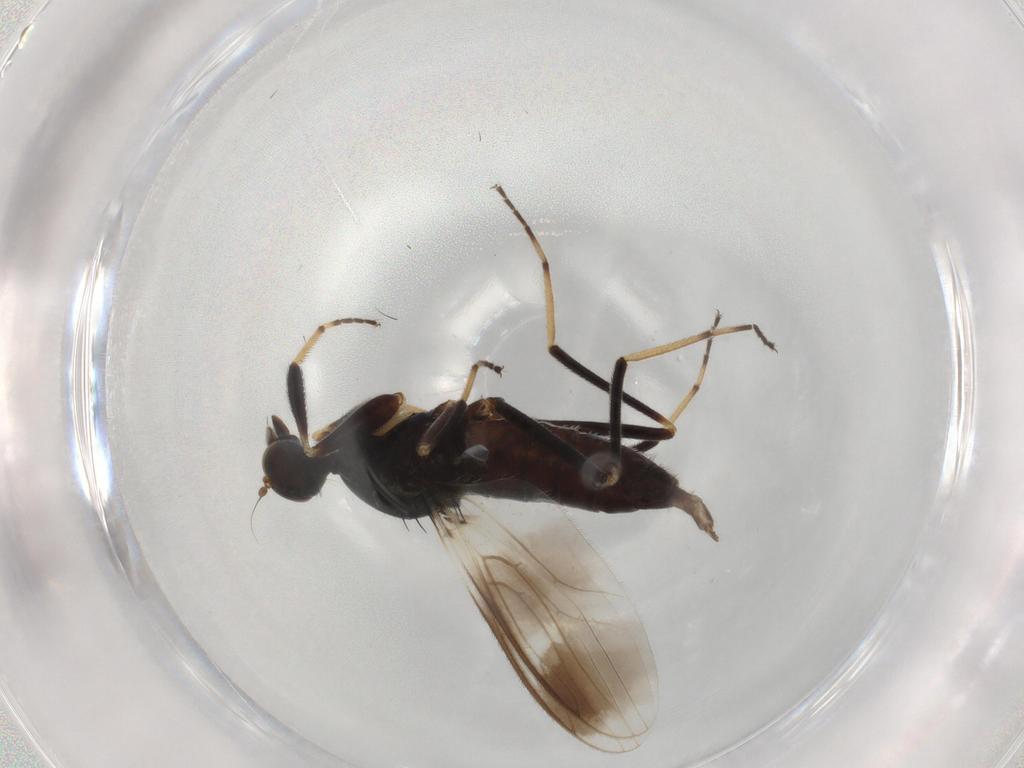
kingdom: Animalia
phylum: Arthropoda
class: Insecta
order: Diptera
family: Hybotidae
